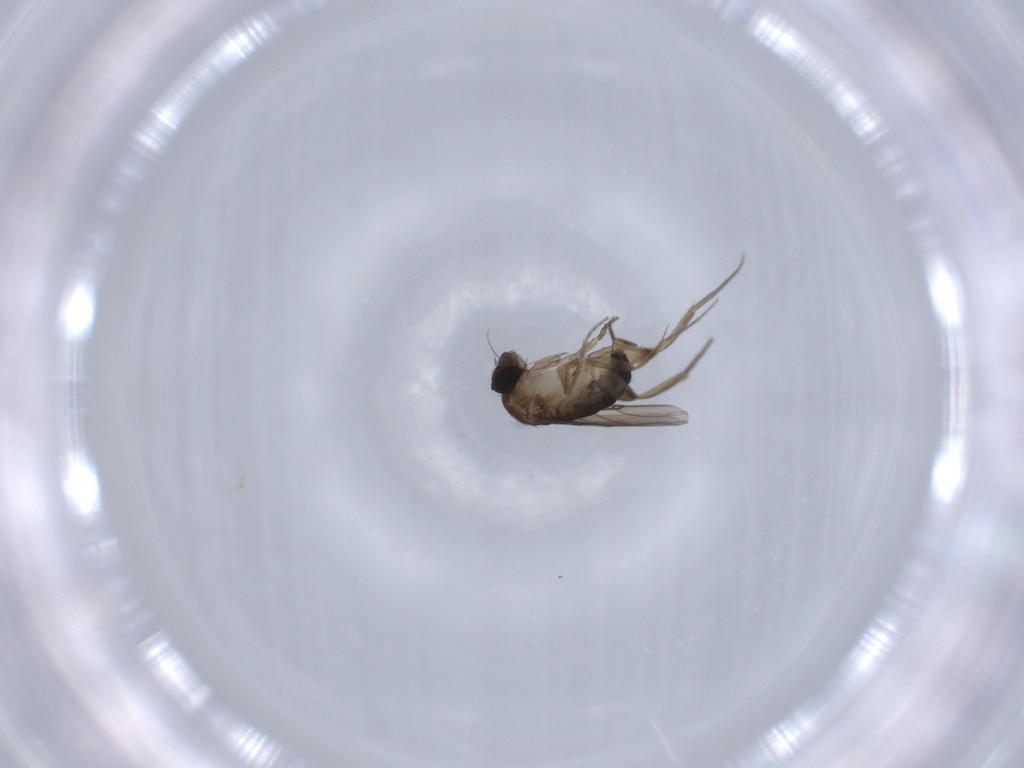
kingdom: Animalia
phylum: Arthropoda
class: Insecta
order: Diptera
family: Phoridae
